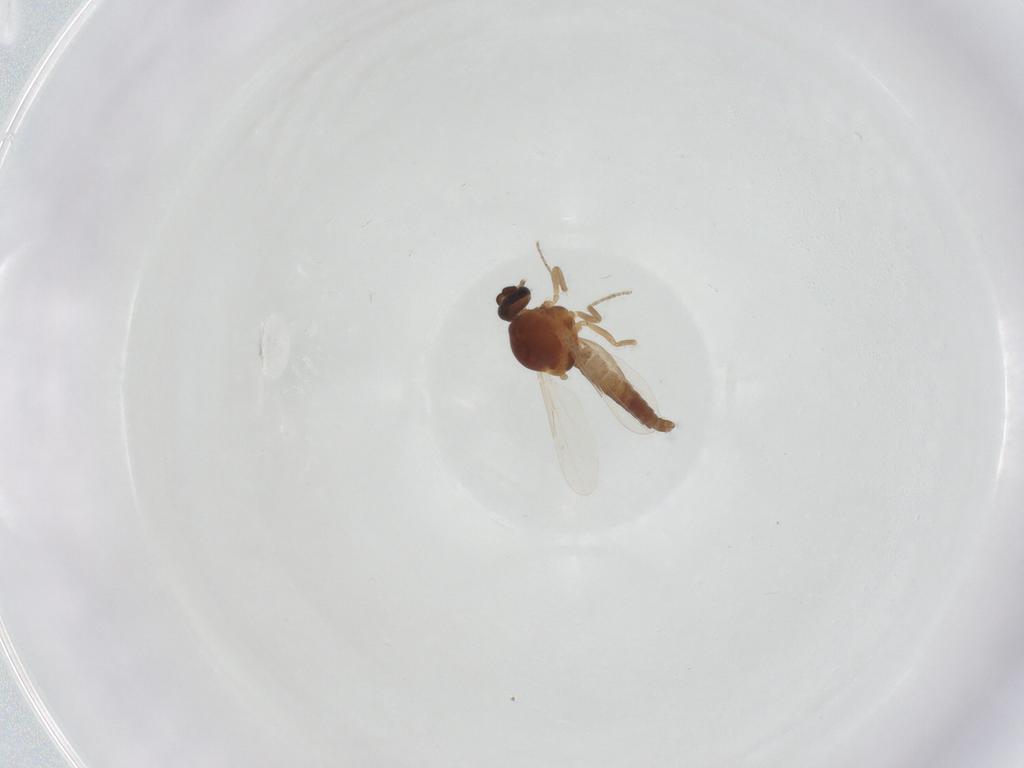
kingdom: Animalia
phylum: Arthropoda
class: Insecta
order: Diptera
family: Ceratopogonidae
